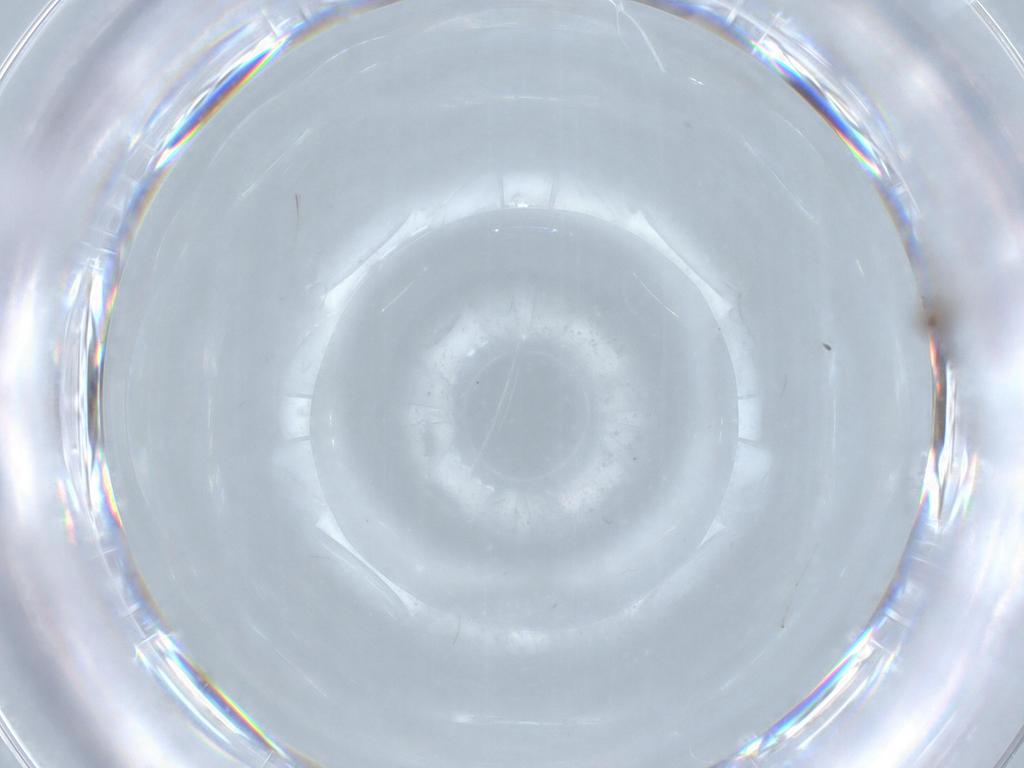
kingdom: Animalia
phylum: Arthropoda
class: Insecta
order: Diptera
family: Cecidomyiidae
